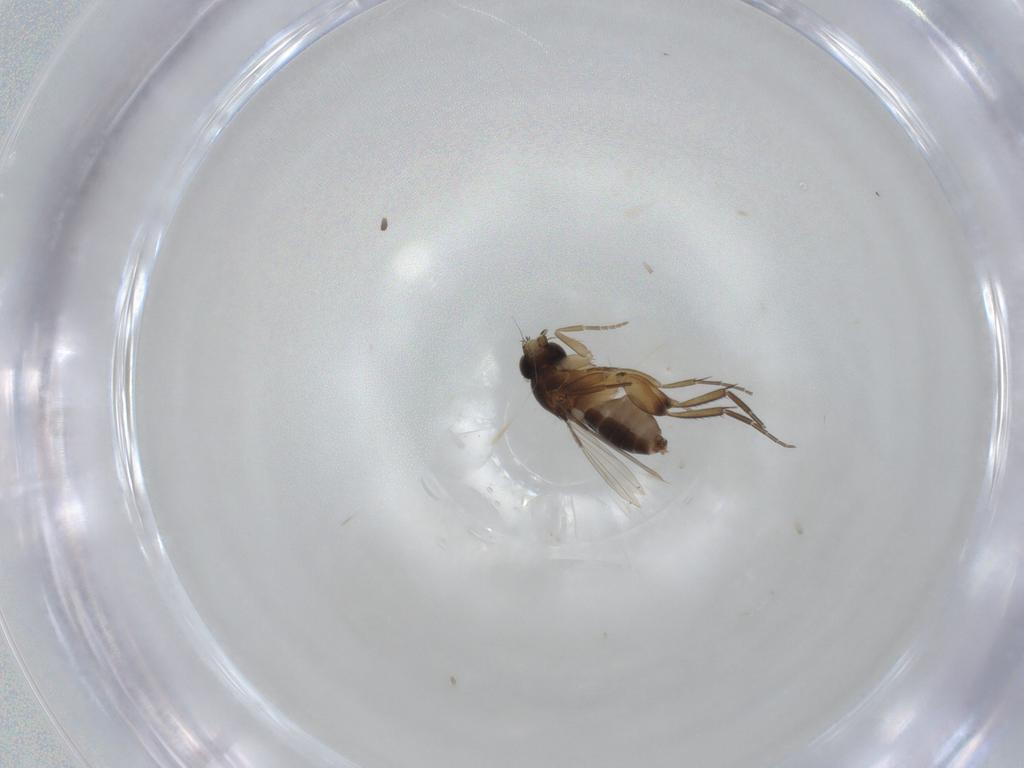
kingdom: Animalia
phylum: Arthropoda
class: Insecta
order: Diptera
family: Phoridae
